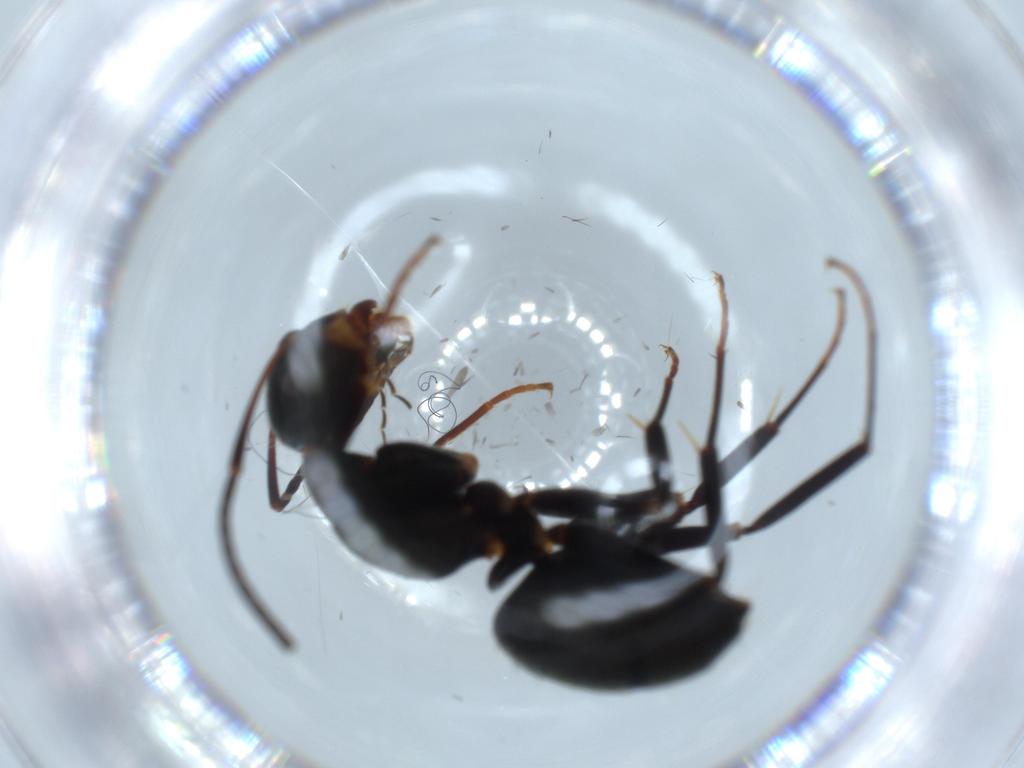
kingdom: Animalia
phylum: Arthropoda
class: Insecta
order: Hymenoptera
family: Formicidae
